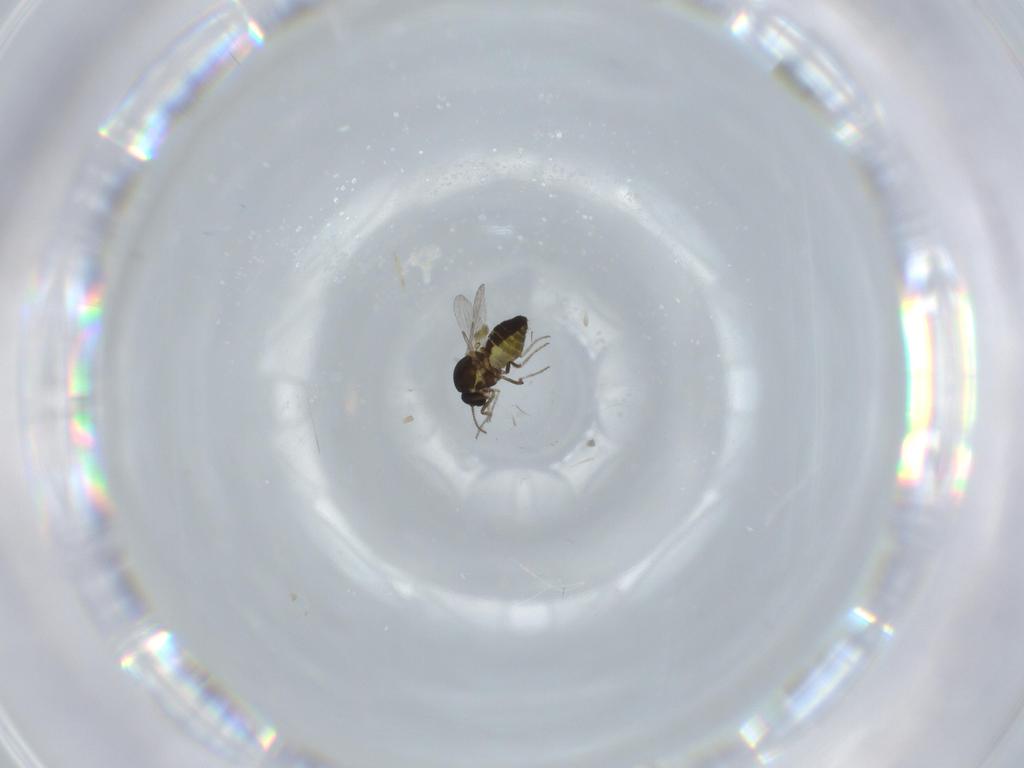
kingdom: Animalia
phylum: Arthropoda
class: Insecta
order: Diptera
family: Ceratopogonidae
